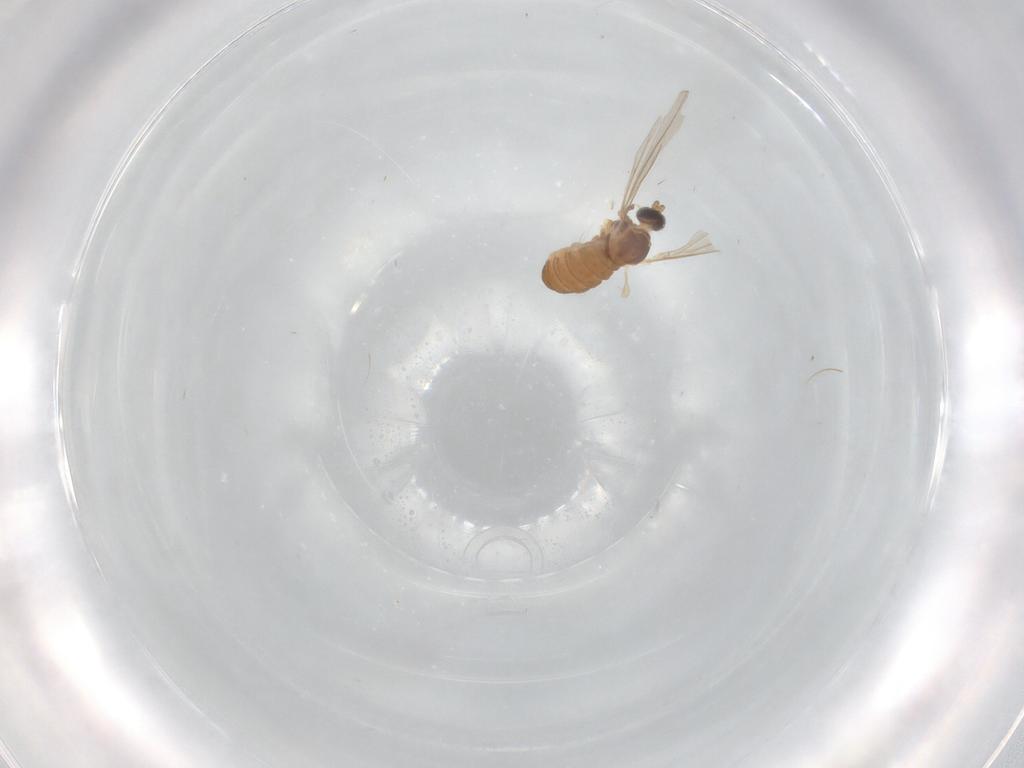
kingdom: Animalia
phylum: Arthropoda
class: Insecta
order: Diptera
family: Cecidomyiidae
